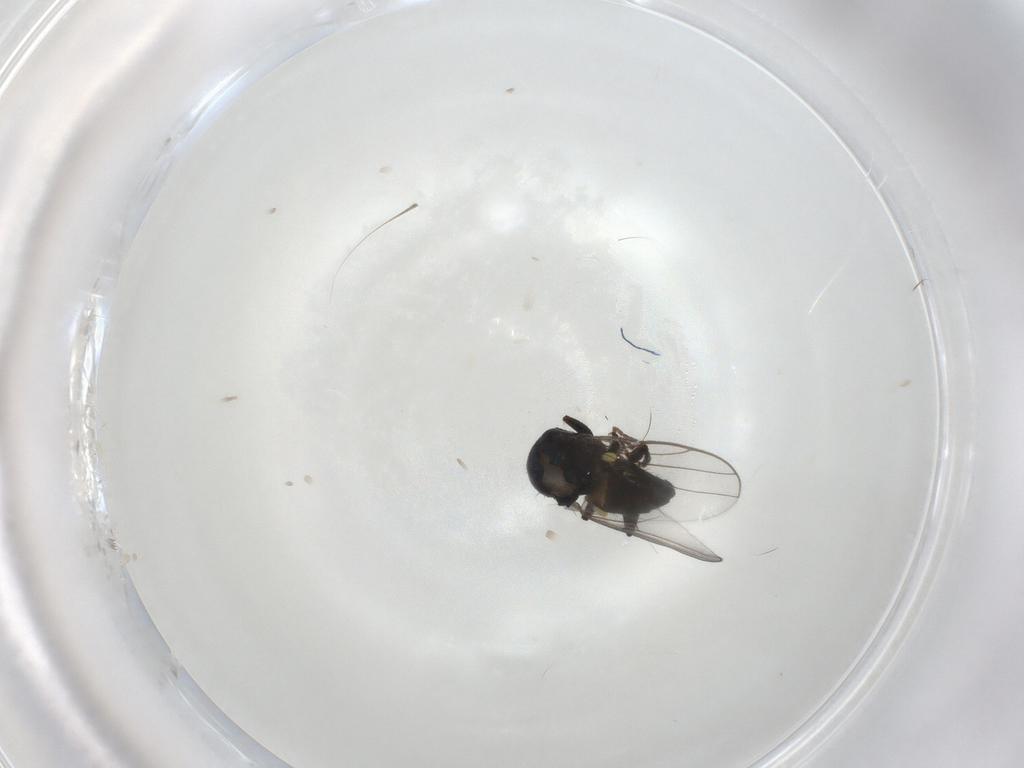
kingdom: Animalia
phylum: Arthropoda
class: Insecta
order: Diptera
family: Chloropidae
